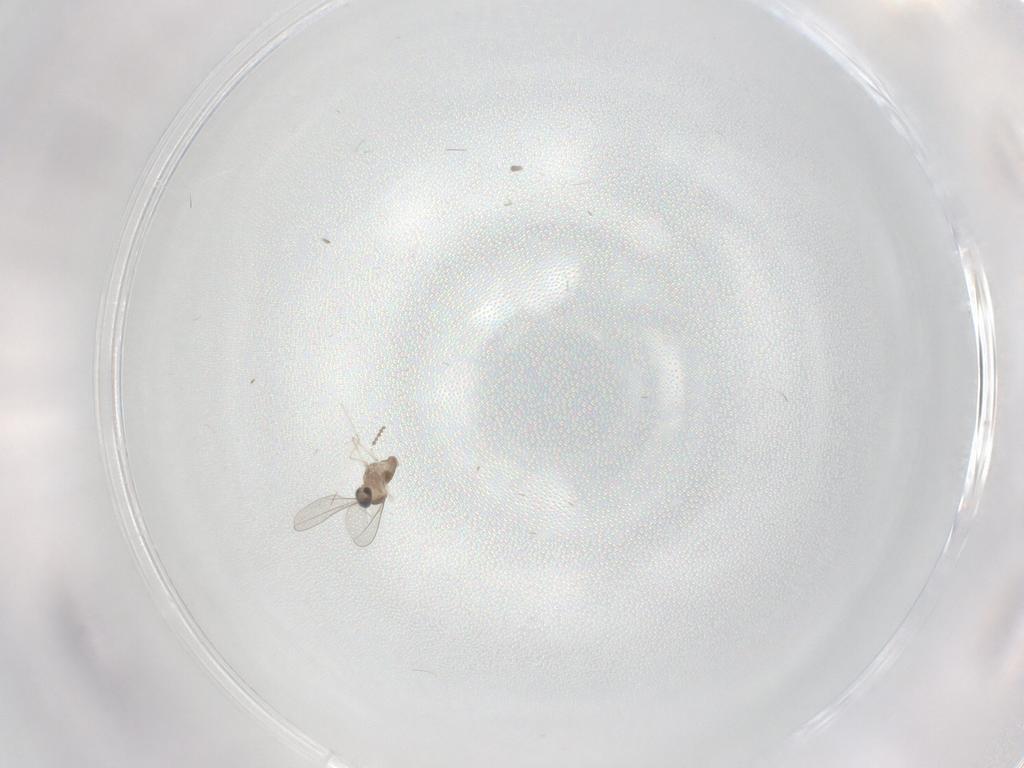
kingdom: Animalia
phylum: Arthropoda
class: Insecta
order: Diptera
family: Cecidomyiidae
